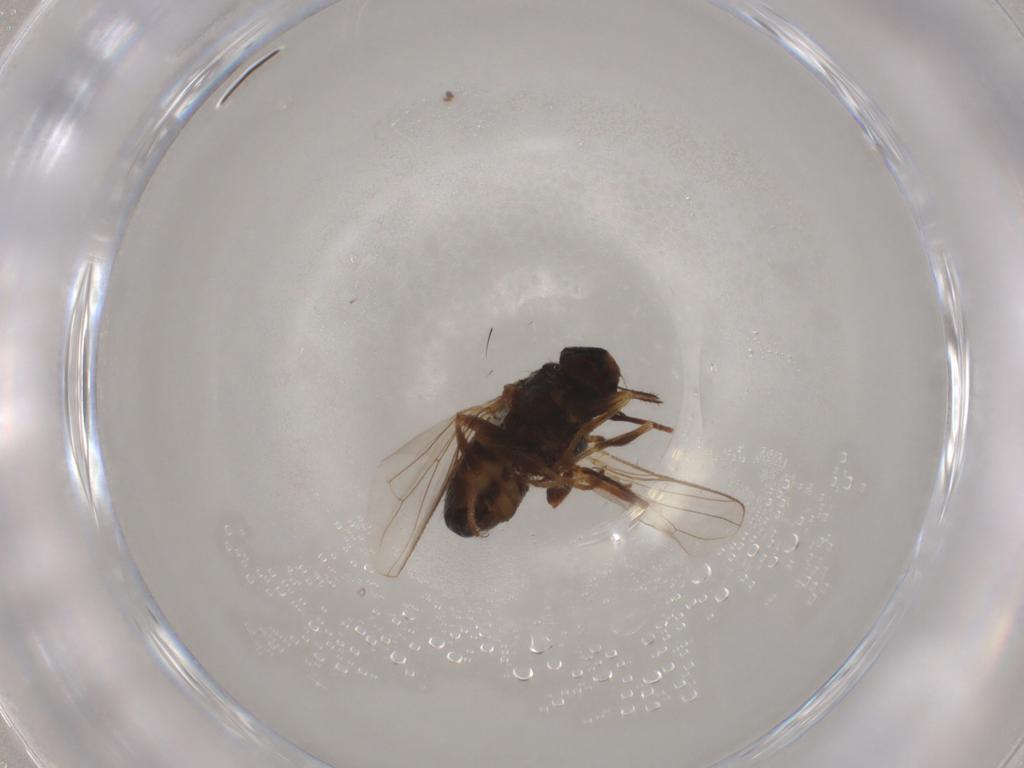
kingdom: Animalia
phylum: Arthropoda
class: Insecta
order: Diptera
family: Muscidae
